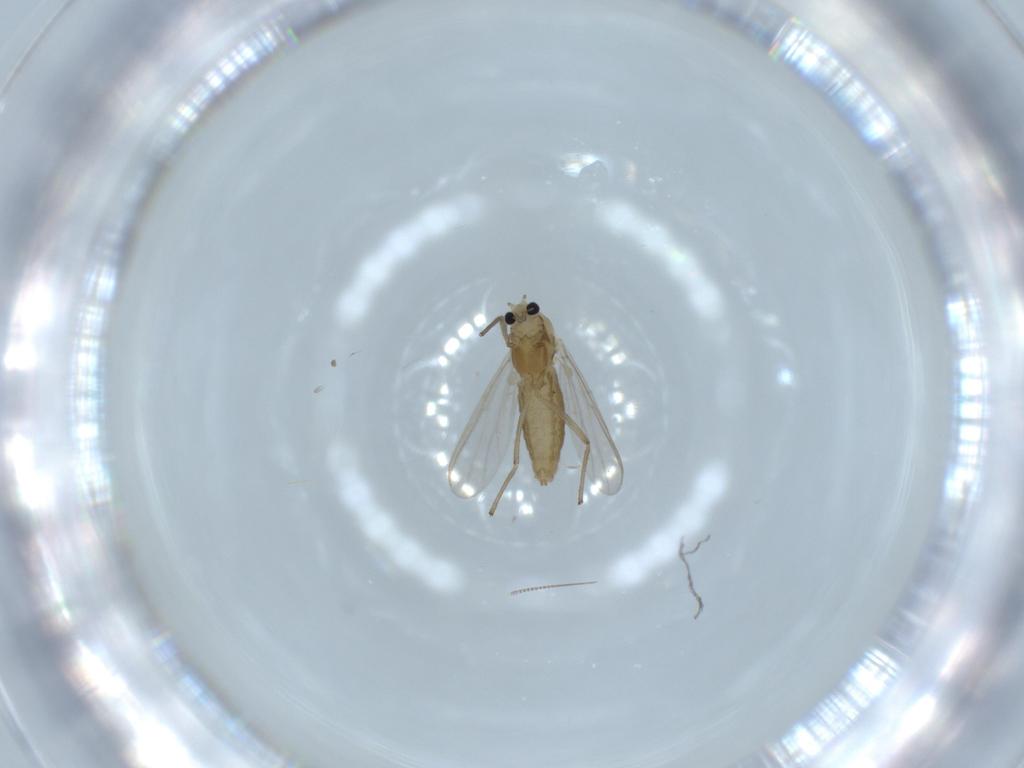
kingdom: Animalia
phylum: Arthropoda
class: Insecta
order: Diptera
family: Chironomidae
